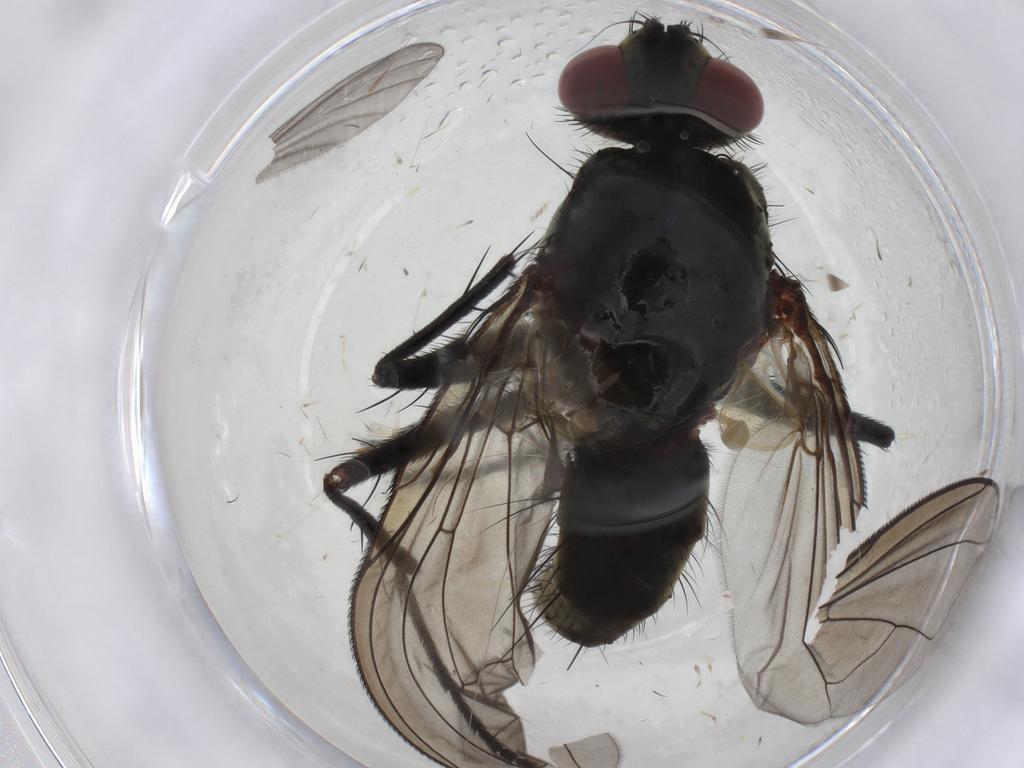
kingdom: Animalia
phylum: Arthropoda
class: Insecta
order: Diptera
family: Tachinidae
